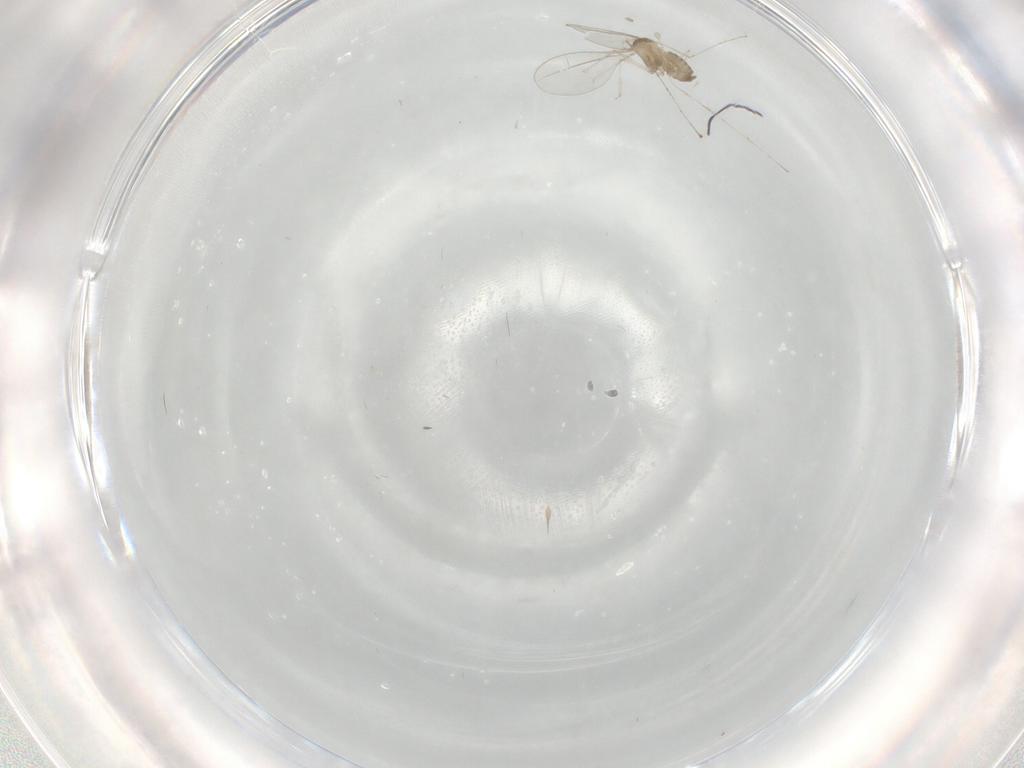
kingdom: Animalia
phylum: Arthropoda
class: Insecta
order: Diptera
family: Cecidomyiidae
